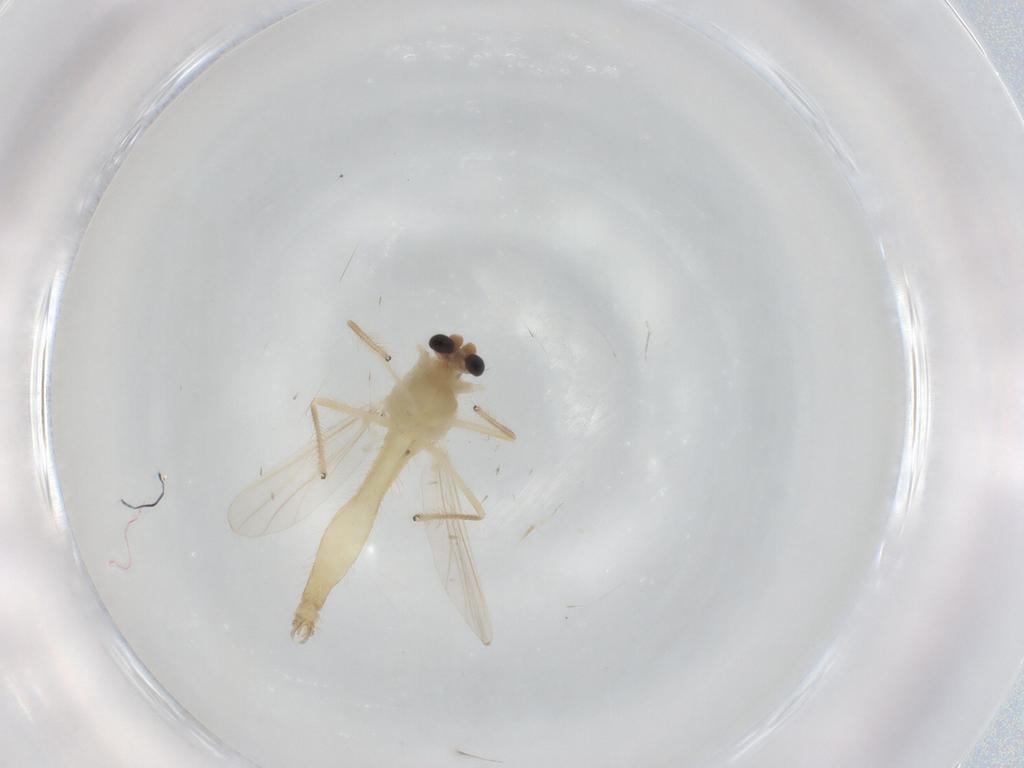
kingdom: Animalia
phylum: Arthropoda
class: Insecta
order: Diptera
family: Chironomidae
